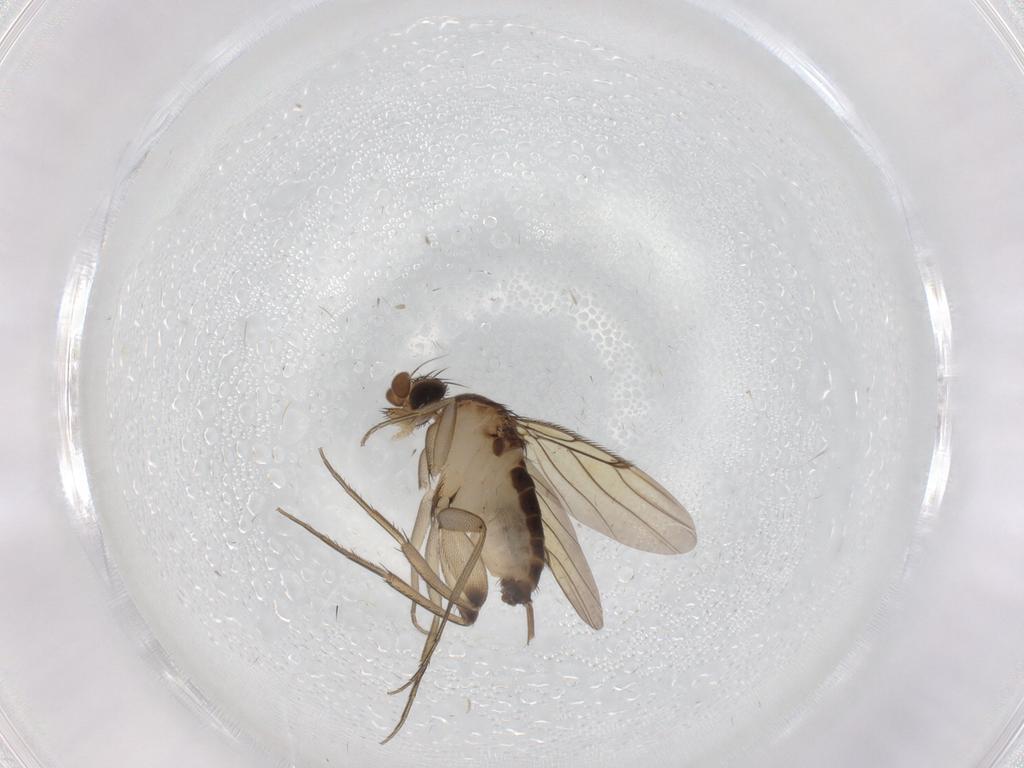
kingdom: Animalia
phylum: Arthropoda
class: Insecta
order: Diptera
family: Phoridae
